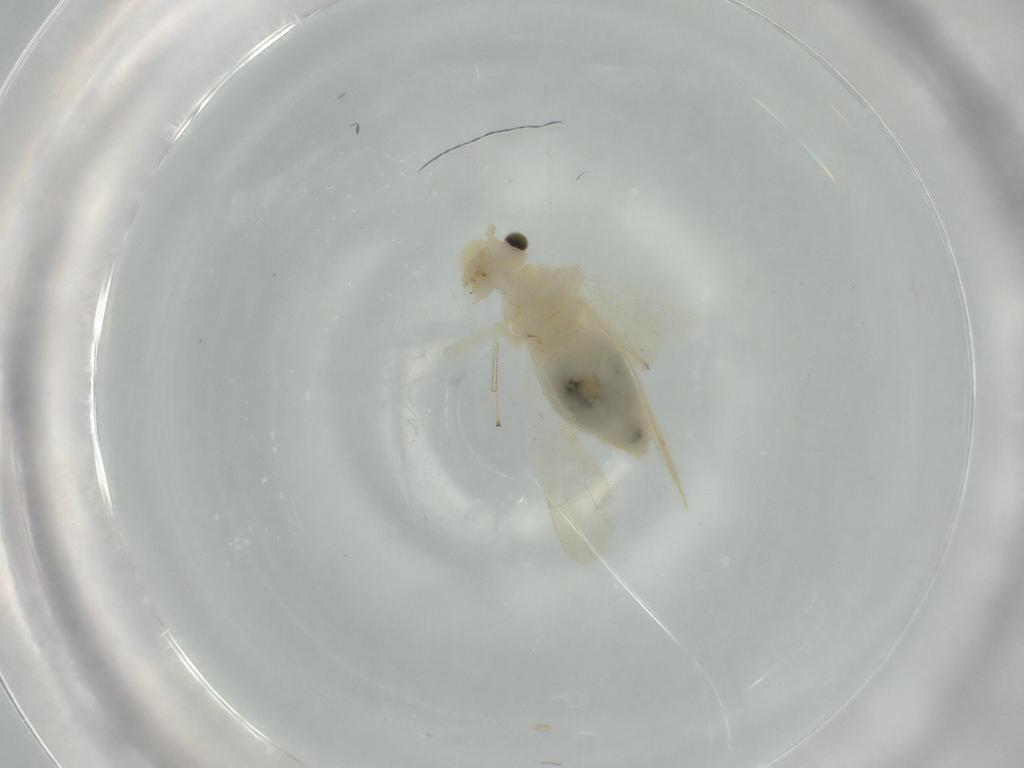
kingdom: Animalia
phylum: Arthropoda
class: Insecta
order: Psocodea
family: Caeciliusidae
